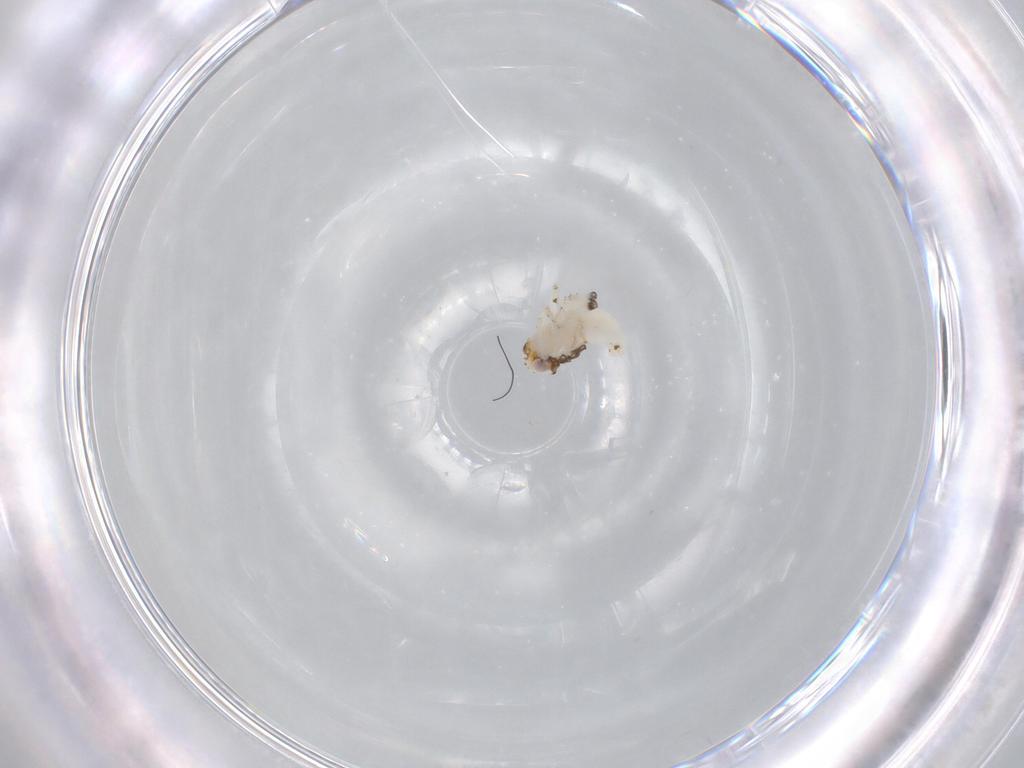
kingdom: Animalia
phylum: Arthropoda
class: Insecta
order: Hemiptera
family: Nogodinidae
